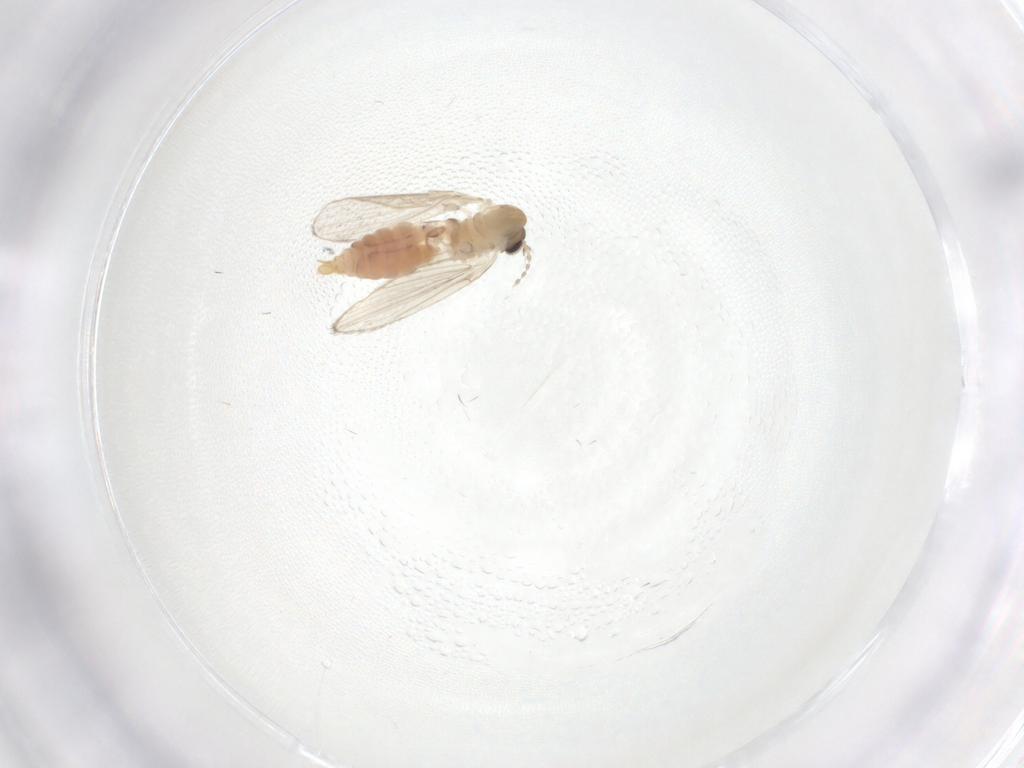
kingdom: Animalia
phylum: Arthropoda
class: Insecta
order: Diptera
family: Psychodidae
